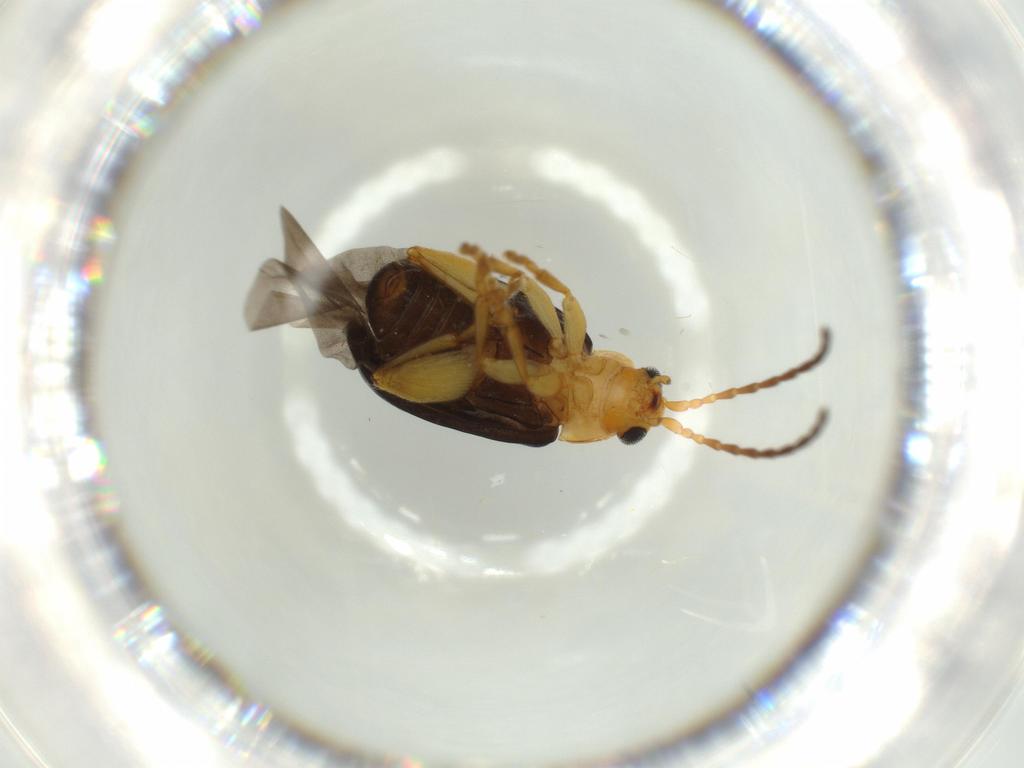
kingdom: Animalia
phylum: Arthropoda
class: Insecta
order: Coleoptera
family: Chrysomelidae
